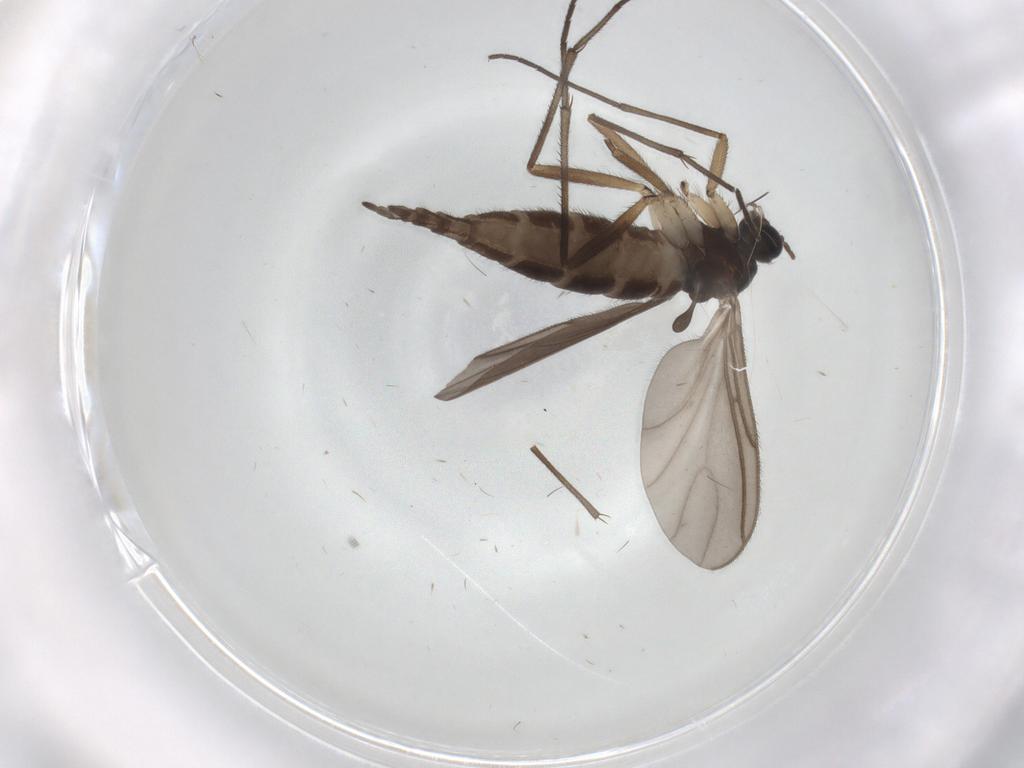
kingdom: Animalia
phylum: Arthropoda
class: Insecta
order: Diptera
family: Sciaridae
